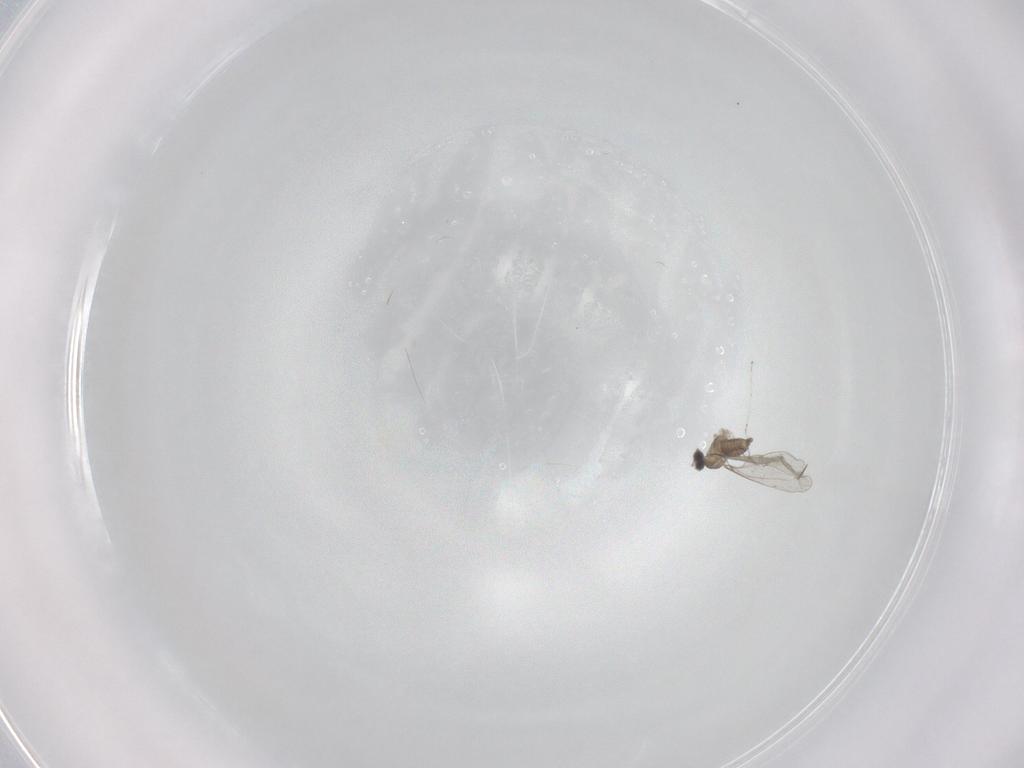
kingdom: Animalia
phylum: Arthropoda
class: Insecta
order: Diptera
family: Cecidomyiidae
